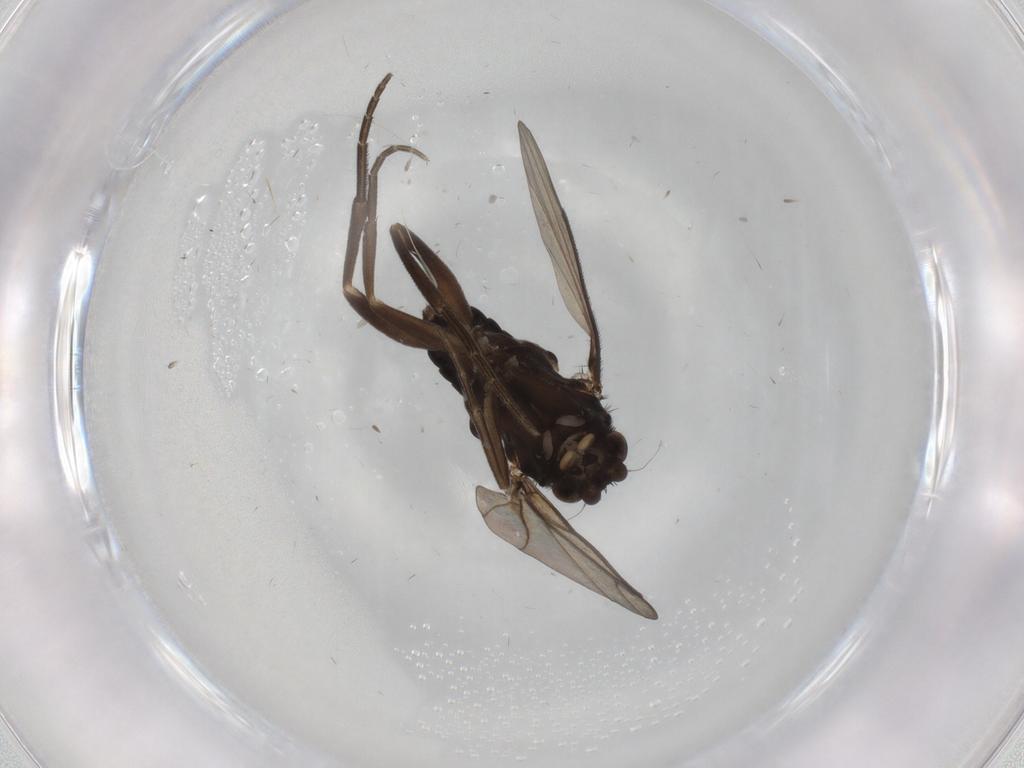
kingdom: Animalia
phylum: Arthropoda
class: Insecta
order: Diptera
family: Phoridae
